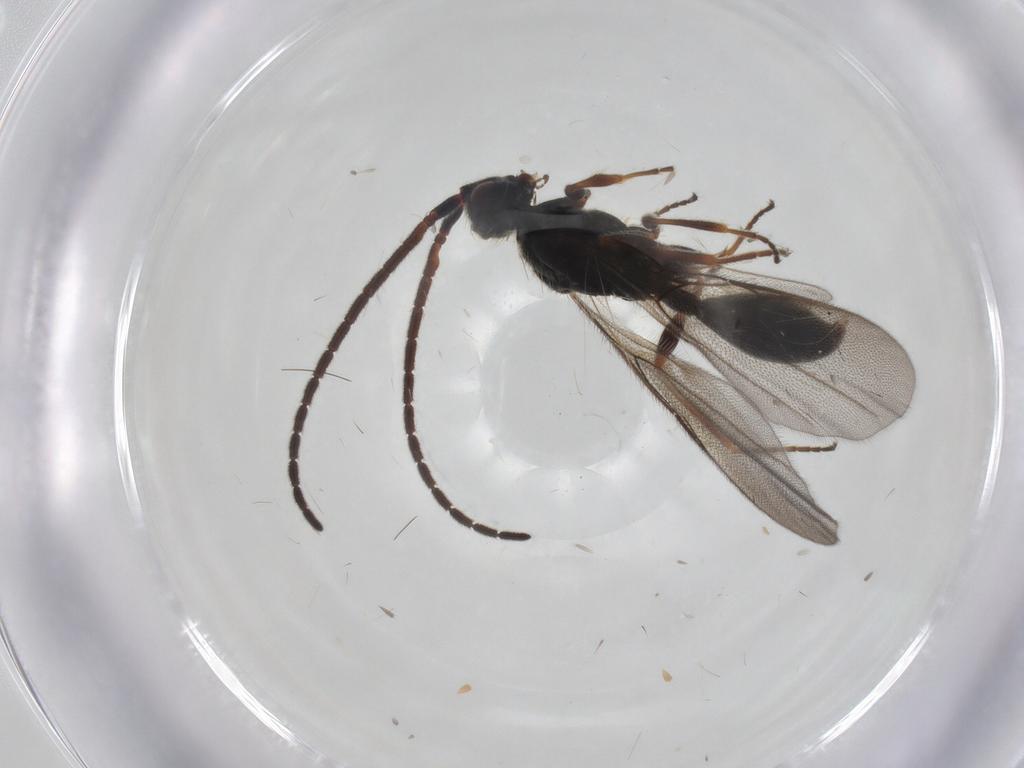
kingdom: Animalia
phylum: Arthropoda
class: Insecta
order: Hymenoptera
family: Diapriidae
